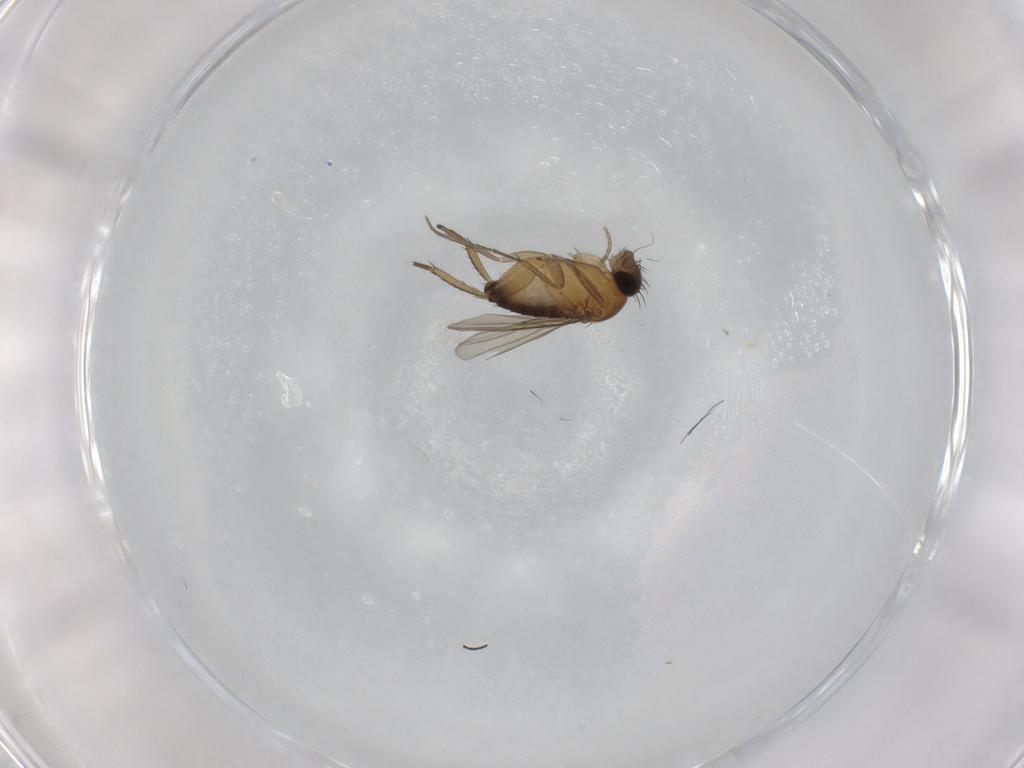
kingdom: Animalia
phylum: Arthropoda
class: Insecta
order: Diptera
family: Phoridae
